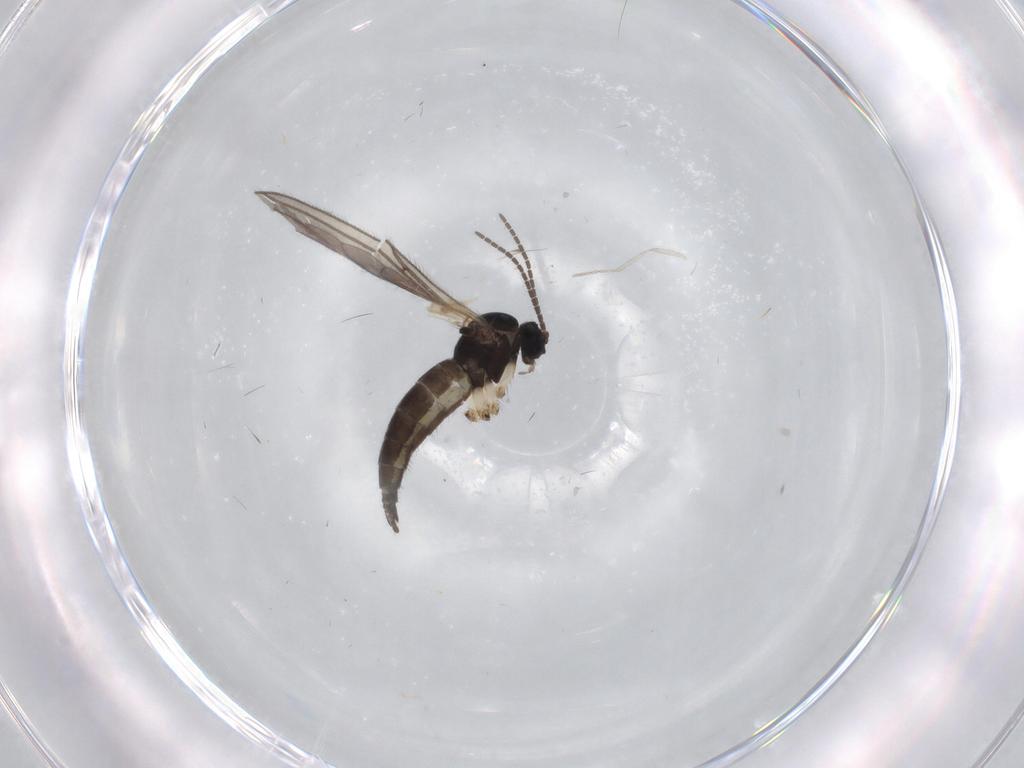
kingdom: Animalia
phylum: Arthropoda
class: Insecta
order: Diptera
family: Sciaridae
